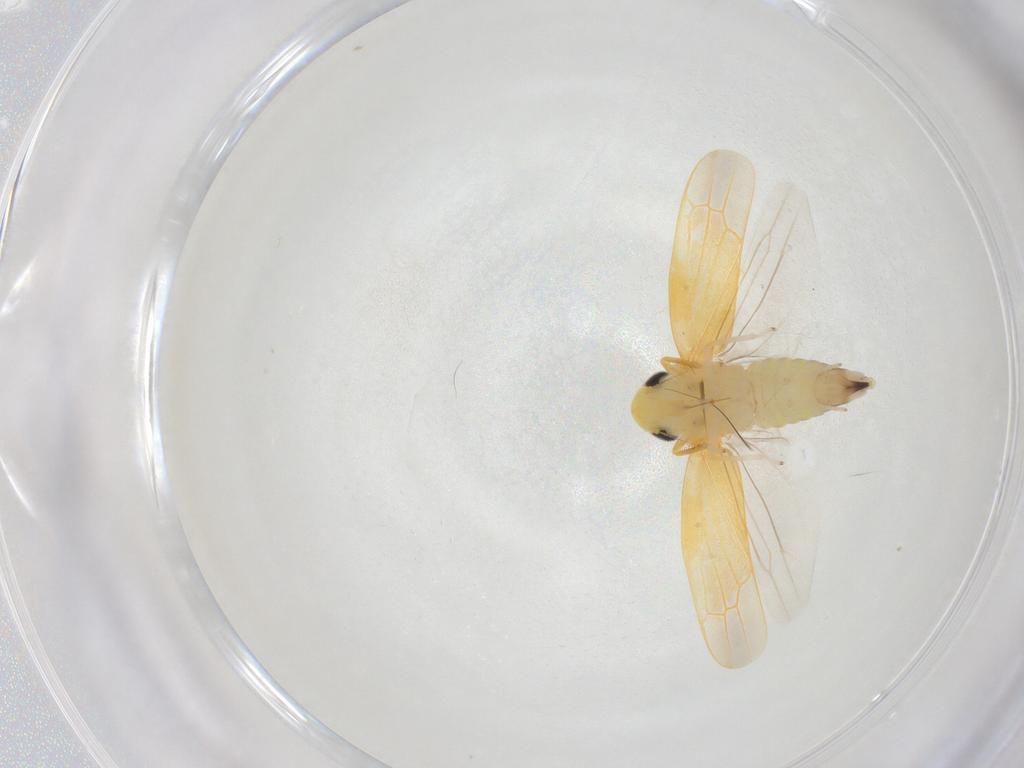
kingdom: Animalia
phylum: Arthropoda
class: Insecta
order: Hemiptera
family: Cicadellidae
